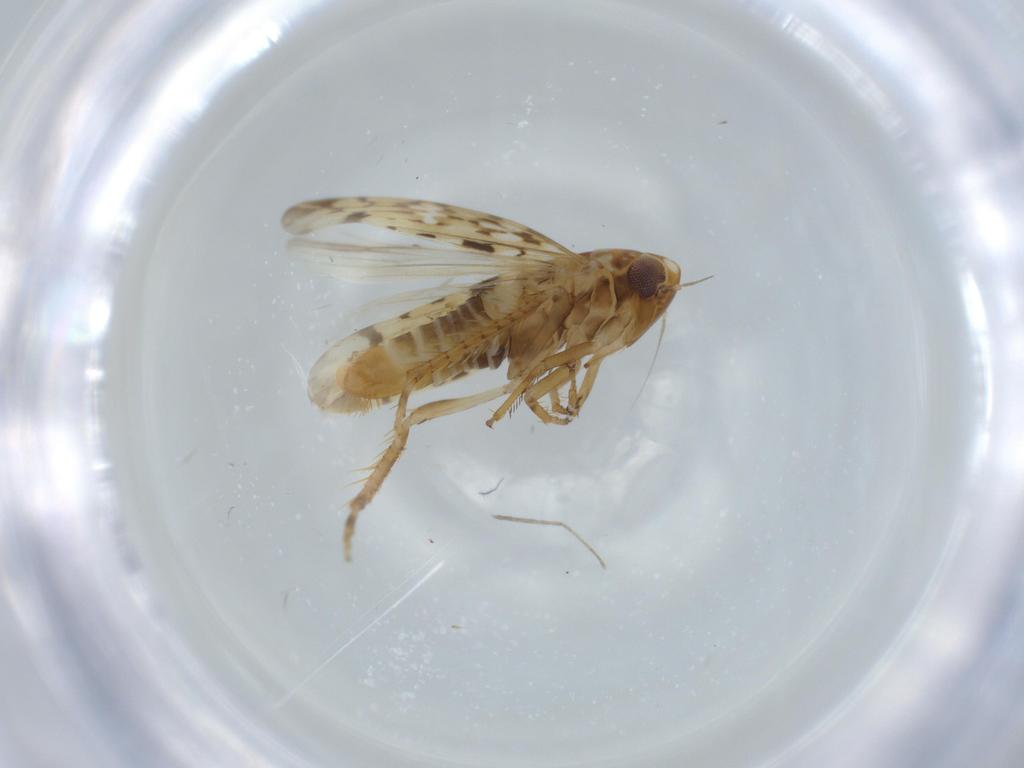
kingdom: Animalia
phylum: Arthropoda
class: Insecta
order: Hemiptera
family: Cicadellidae
